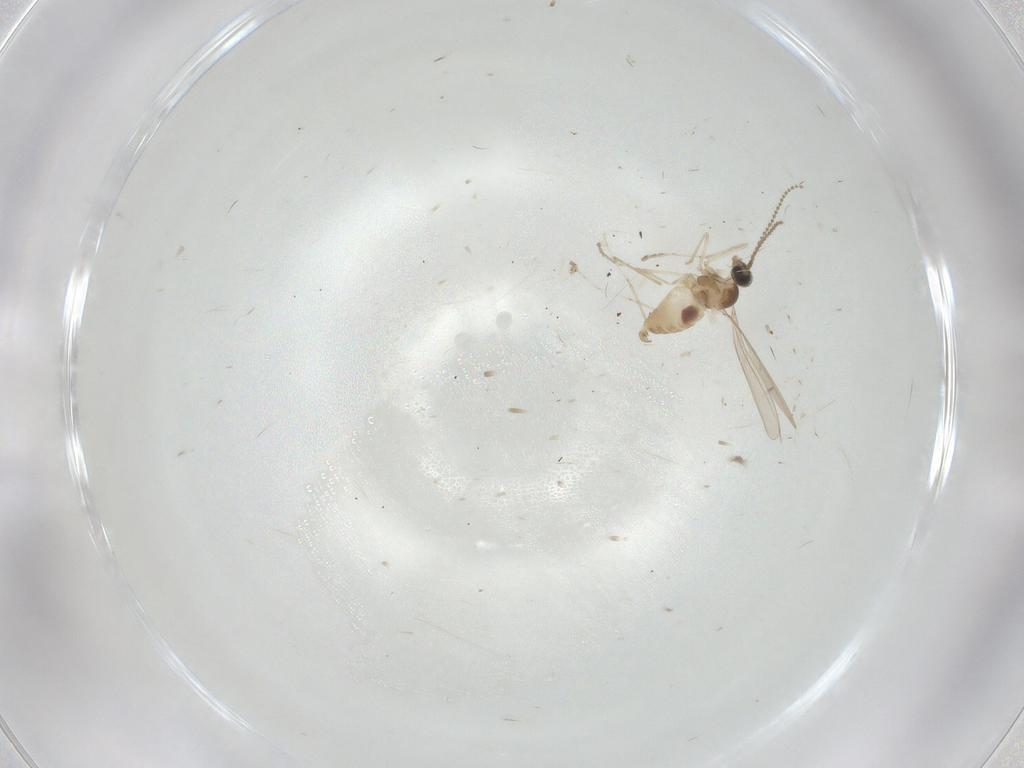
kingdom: Animalia
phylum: Arthropoda
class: Insecta
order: Diptera
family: Cecidomyiidae
